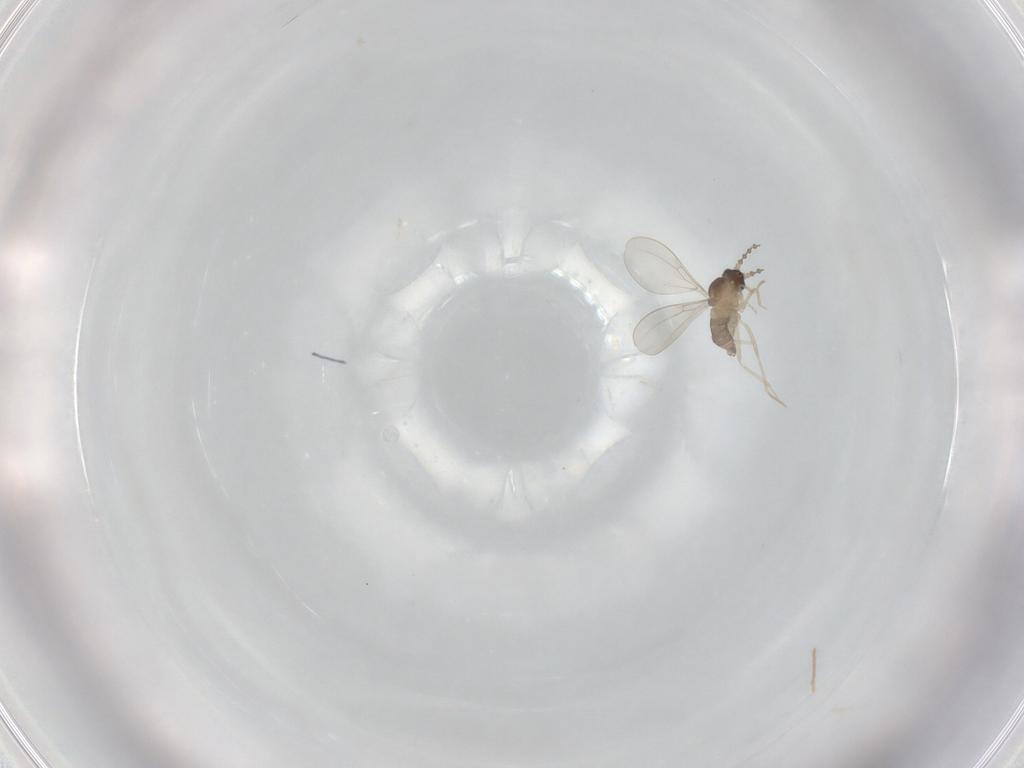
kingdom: Animalia
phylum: Arthropoda
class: Insecta
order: Diptera
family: Cecidomyiidae
